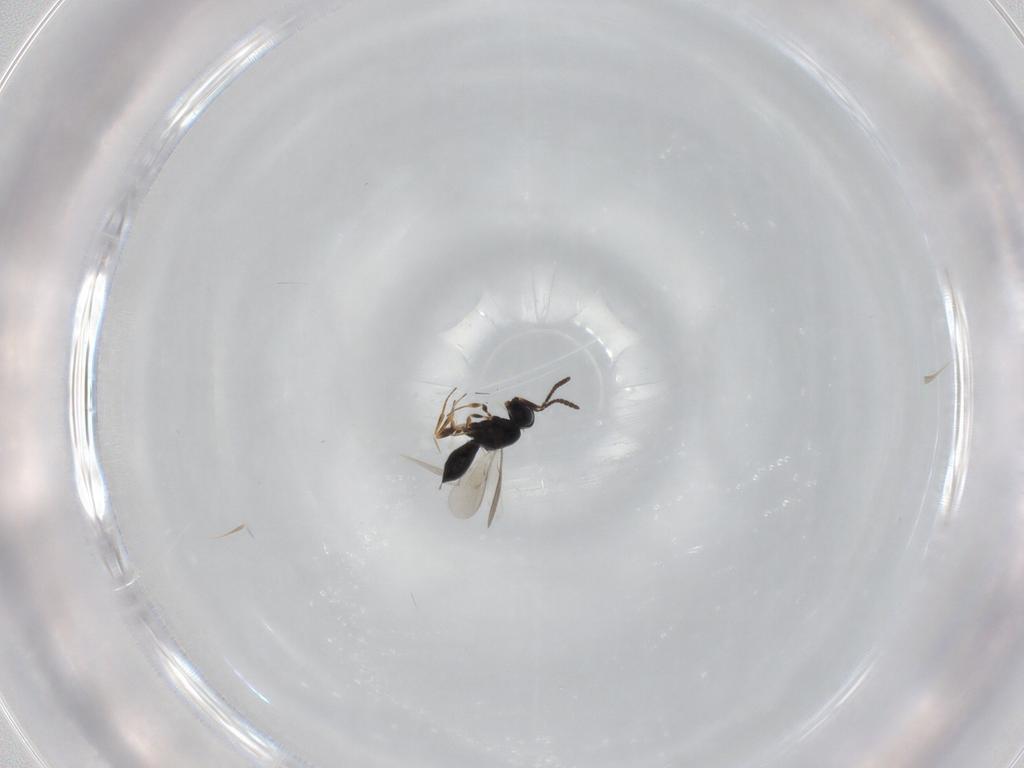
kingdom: Animalia
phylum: Arthropoda
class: Insecta
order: Hymenoptera
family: Scelionidae
